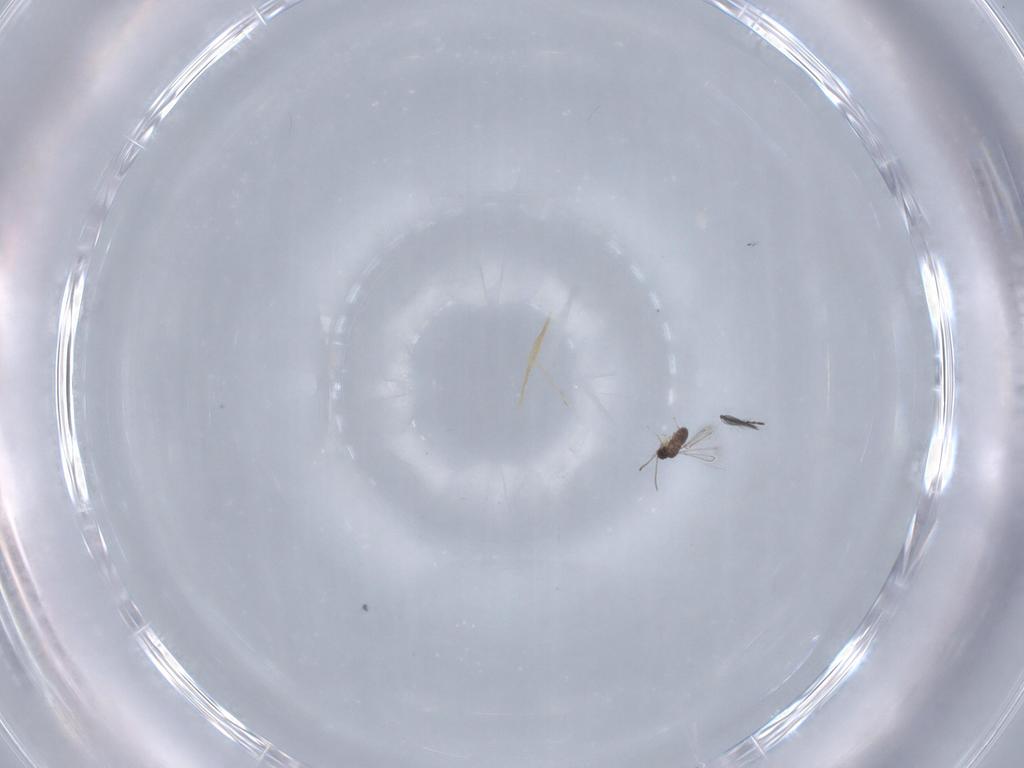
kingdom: Animalia
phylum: Arthropoda
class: Insecta
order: Hymenoptera
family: Mymaridae
